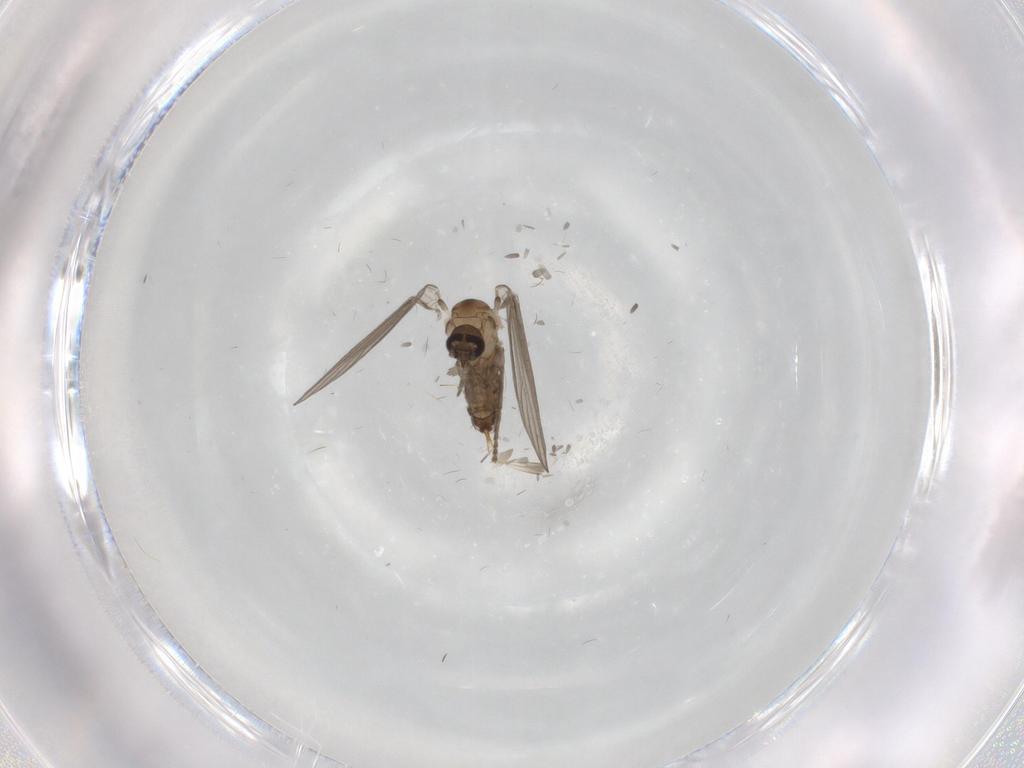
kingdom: Animalia
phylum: Arthropoda
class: Insecta
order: Diptera
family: Psychodidae
